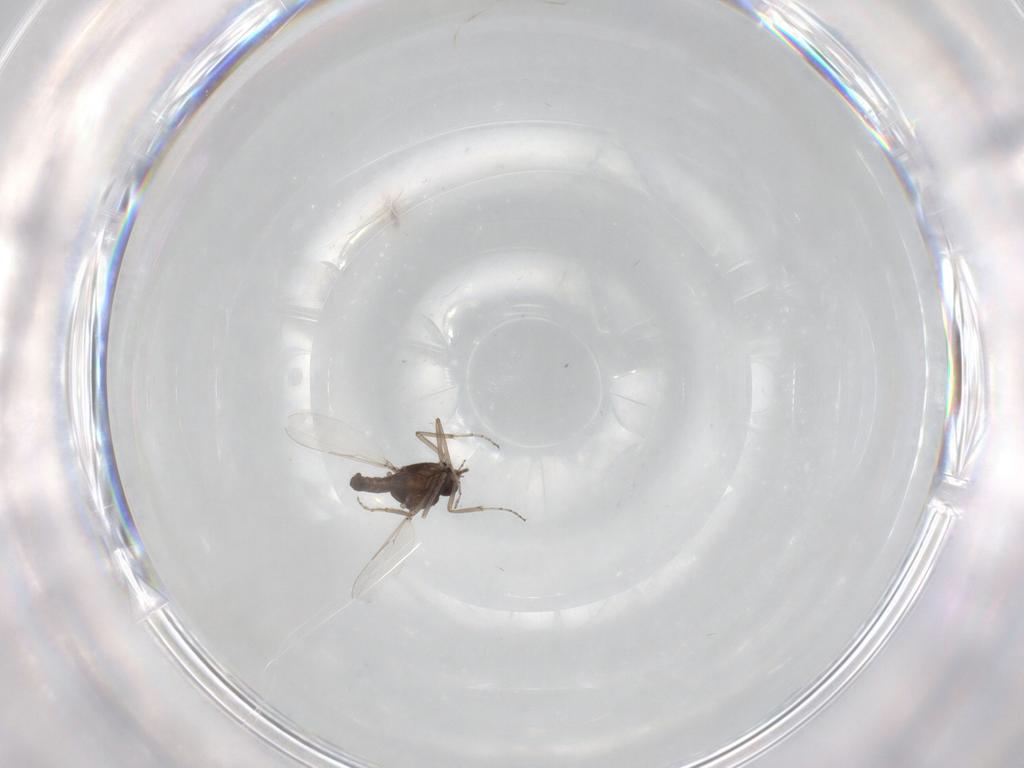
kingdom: Animalia
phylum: Arthropoda
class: Insecta
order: Diptera
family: Ceratopogonidae
